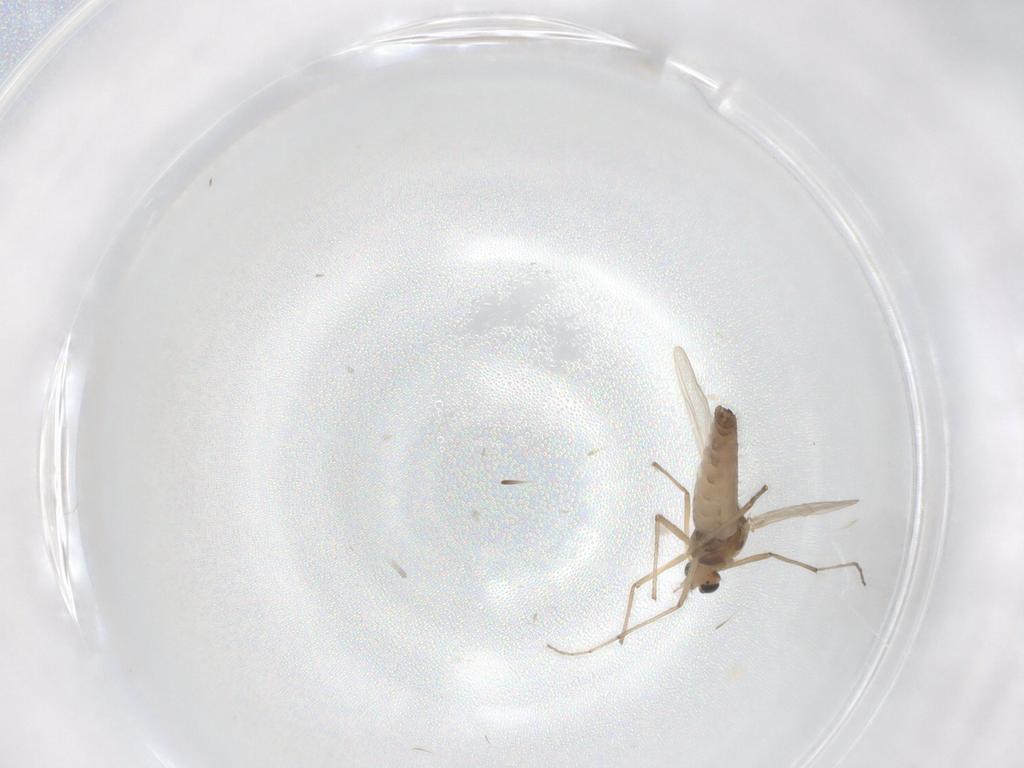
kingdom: Animalia
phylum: Arthropoda
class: Insecta
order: Diptera
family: Chironomidae
